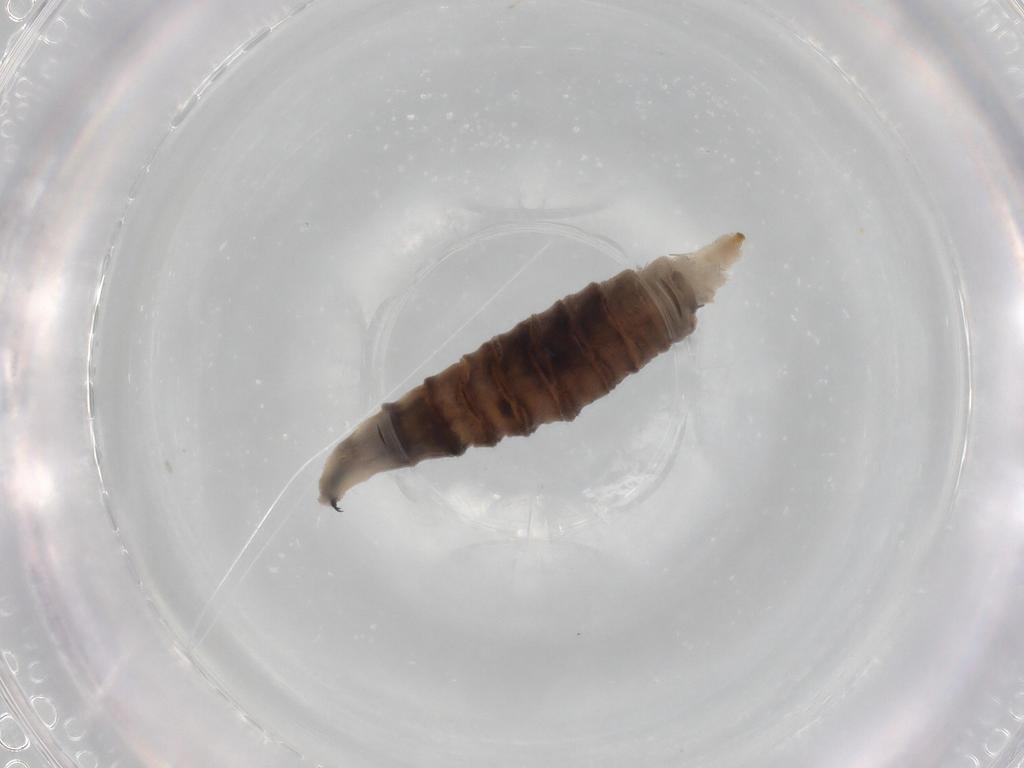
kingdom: Animalia
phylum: Arthropoda
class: Insecta
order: Diptera
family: Drosophilidae
